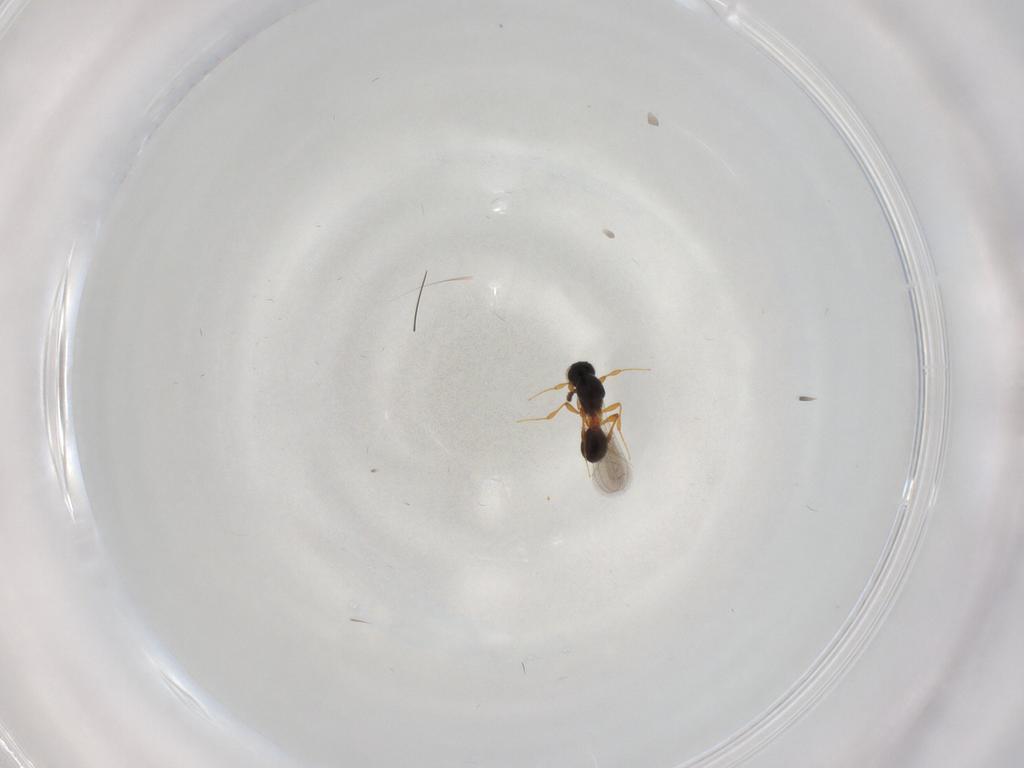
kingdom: Animalia
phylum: Arthropoda
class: Insecta
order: Hymenoptera
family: Platygastridae
